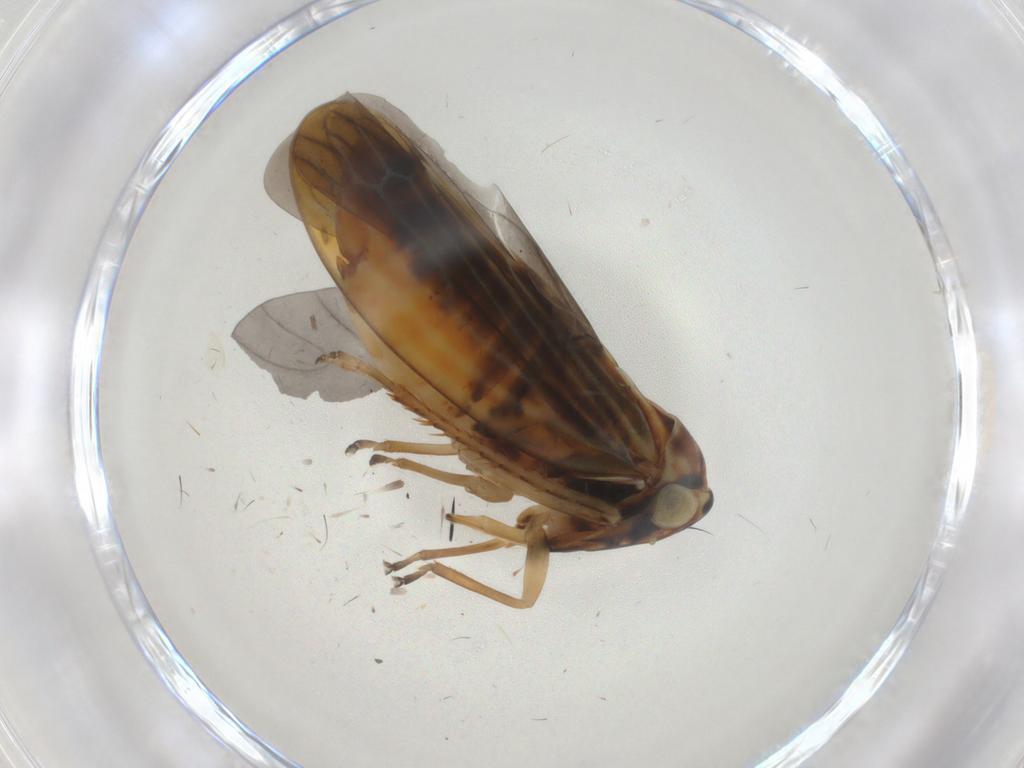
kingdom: Animalia
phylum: Arthropoda
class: Insecta
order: Hemiptera
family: Cicadellidae
